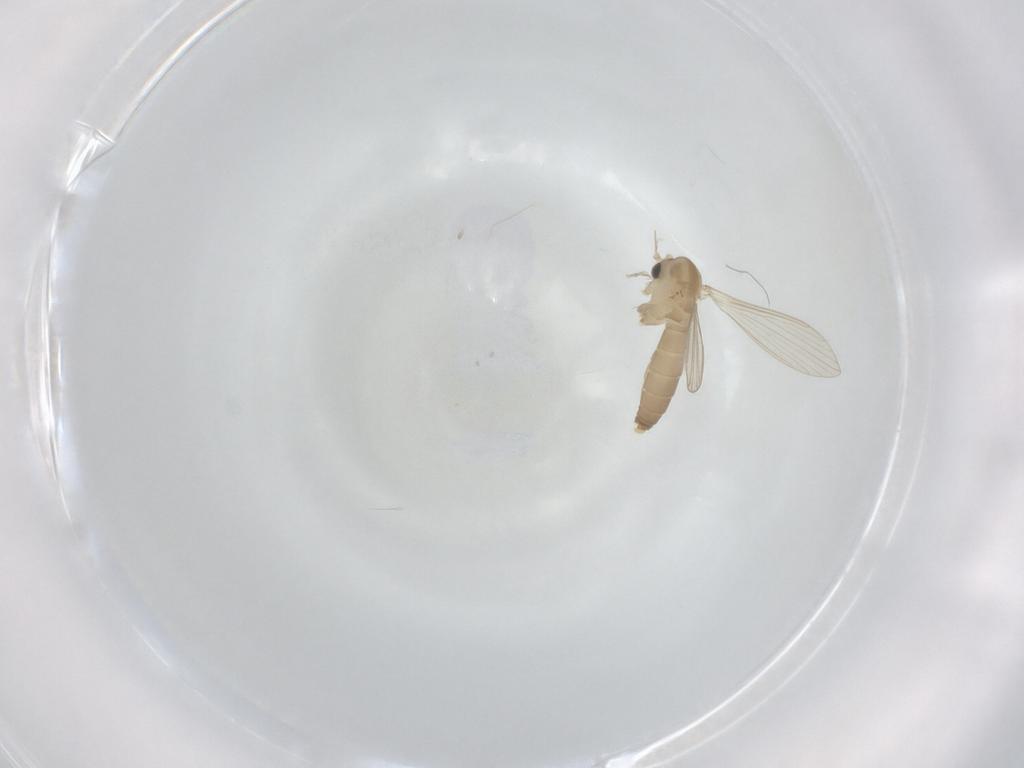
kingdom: Animalia
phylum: Arthropoda
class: Insecta
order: Diptera
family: Psychodidae
